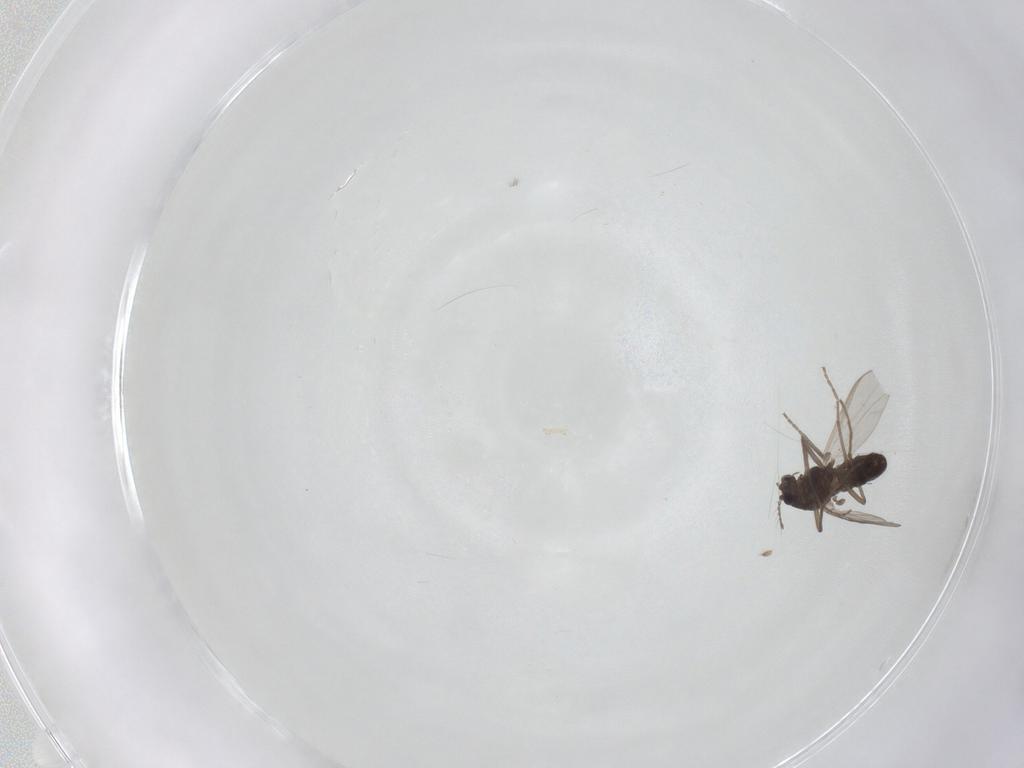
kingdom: Animalia
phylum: Arthropoda
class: Insecta
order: Diptera
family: Chironomidae
